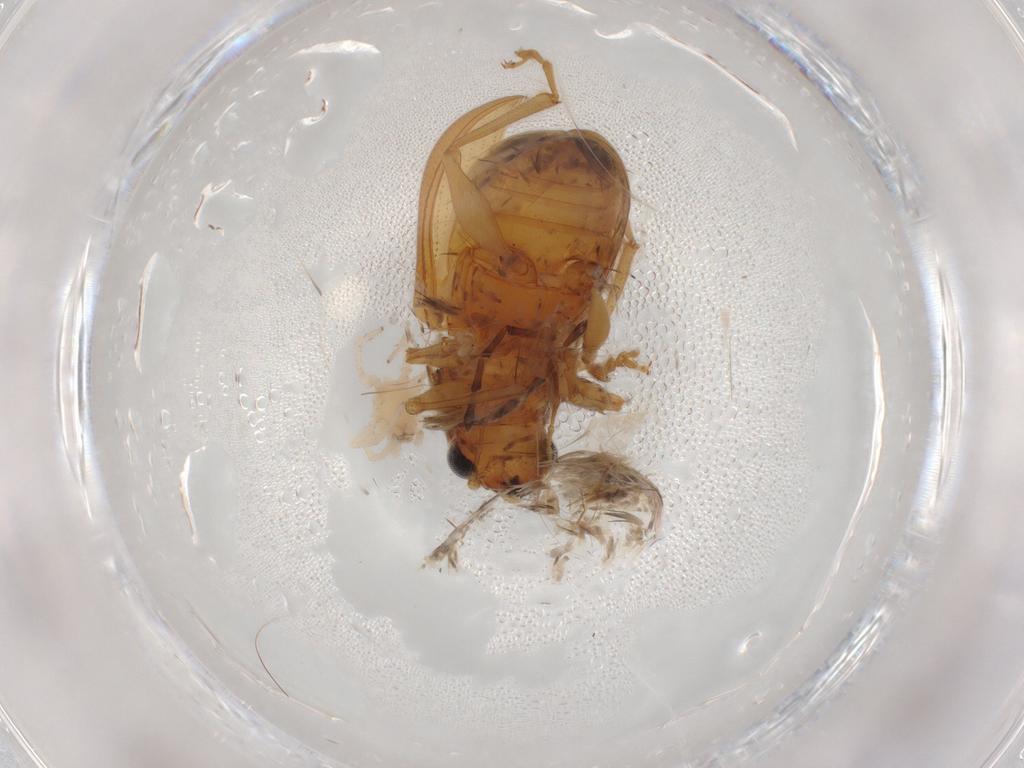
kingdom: Animalia
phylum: Arthropoda
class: Insecta
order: Coleoptera
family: Chrysomelidae
